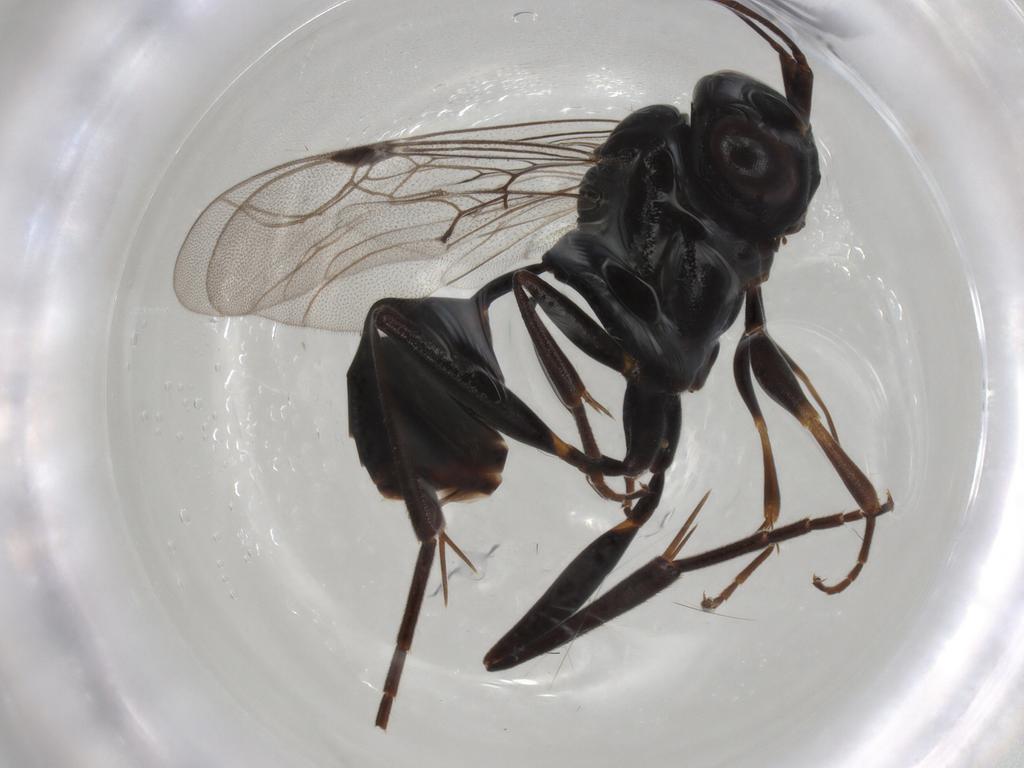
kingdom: Animalia
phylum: Arthropoda
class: Insecta
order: Hymenoptera
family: Evaniidae
